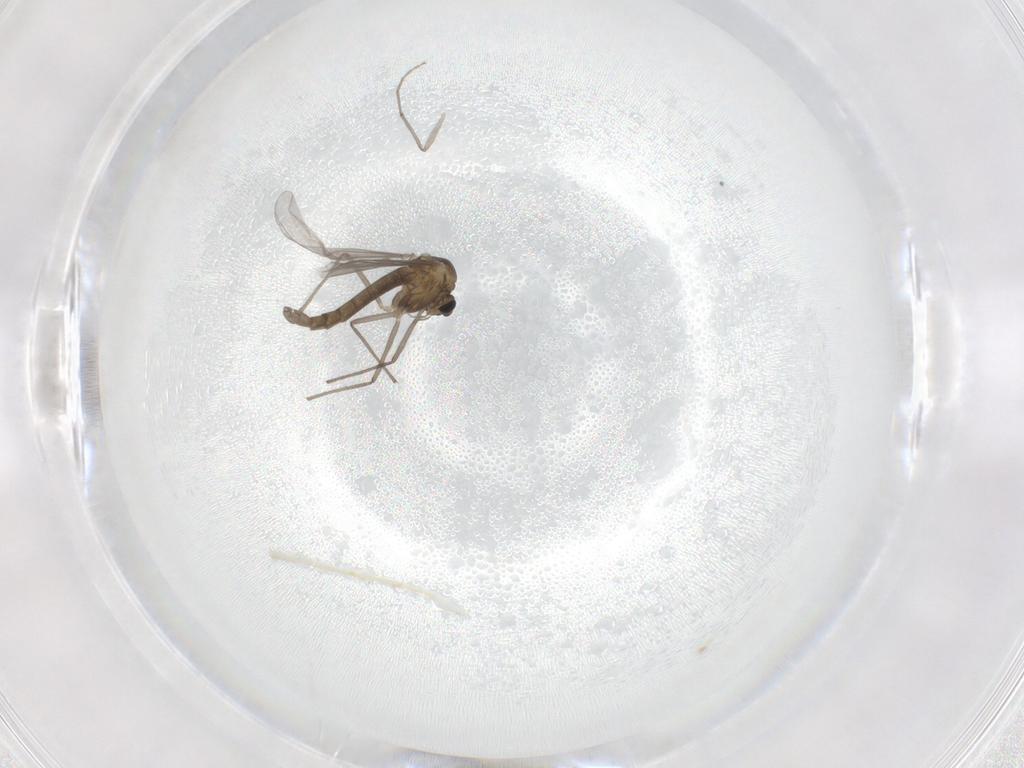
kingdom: Animalia
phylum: Arthropoda
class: Insecta
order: Diptera
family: Chironomidae
